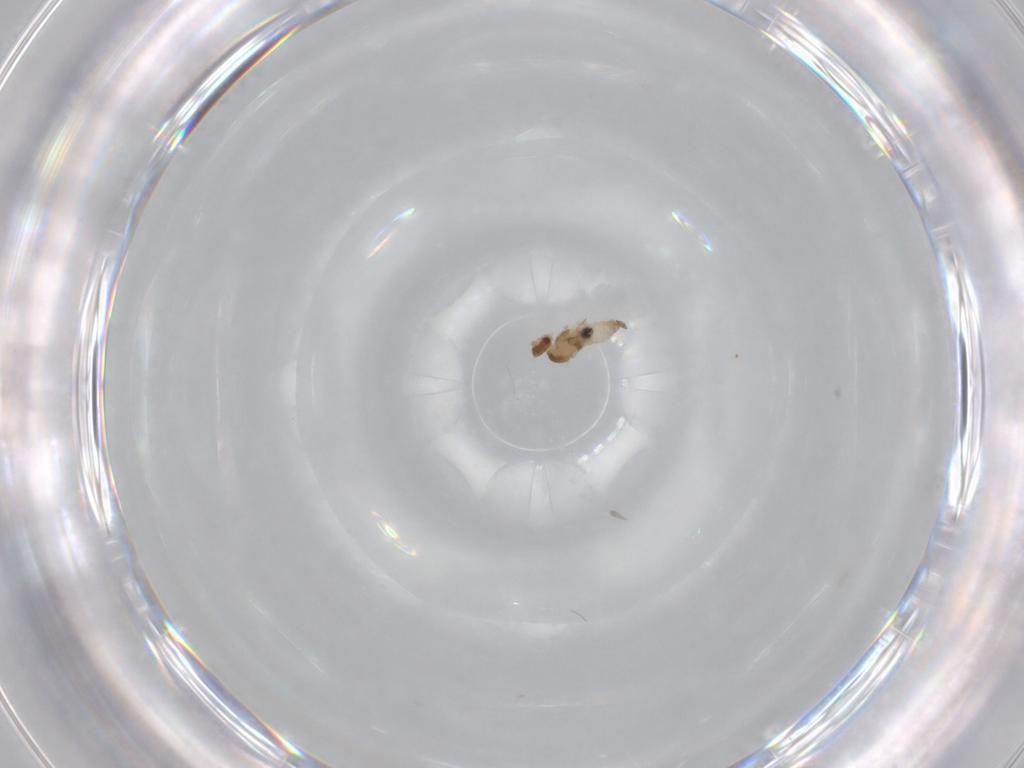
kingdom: Animalia
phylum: Arthropoda
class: Insecta
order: Diptera
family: Cecidomyiidae
